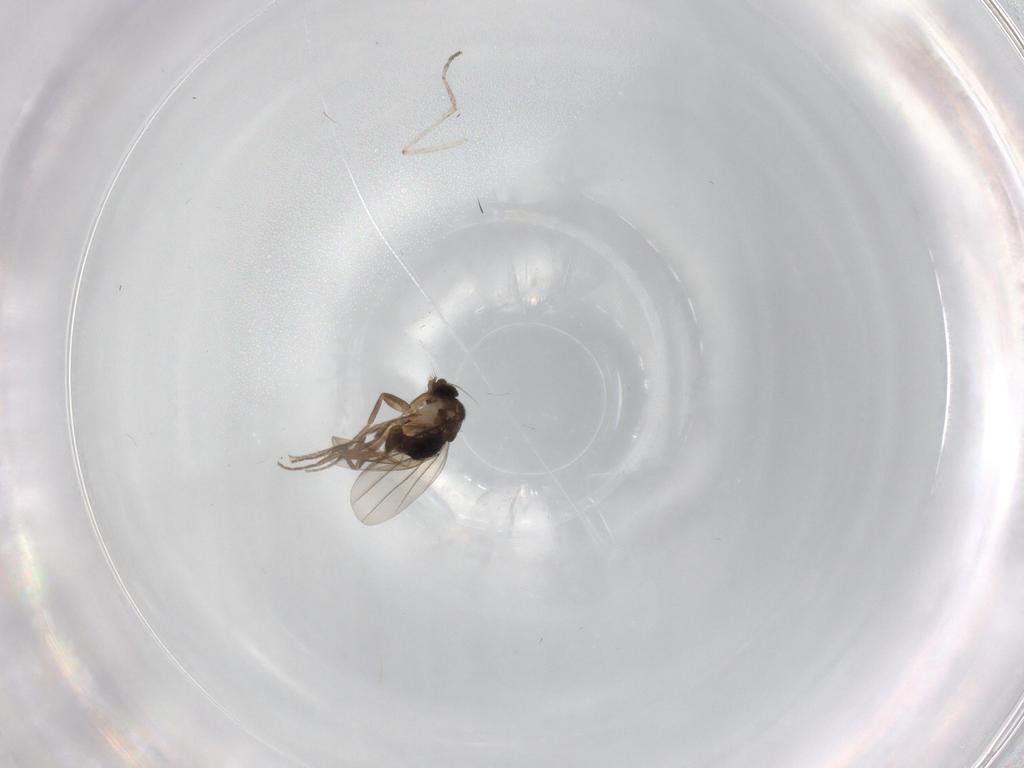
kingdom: Animalia
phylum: Arthropoda
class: Insecta
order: Diptera
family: Phoridae
